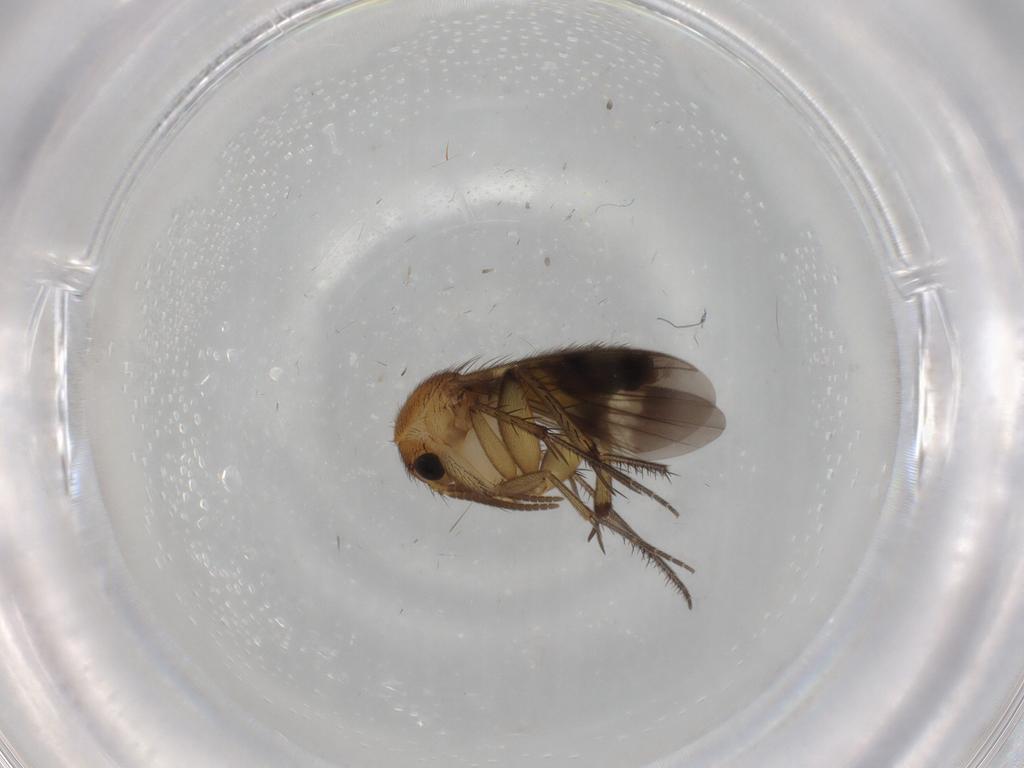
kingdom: Animalia
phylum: Arthropoda
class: Insecta
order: Diptera
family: Mycetophilidae
